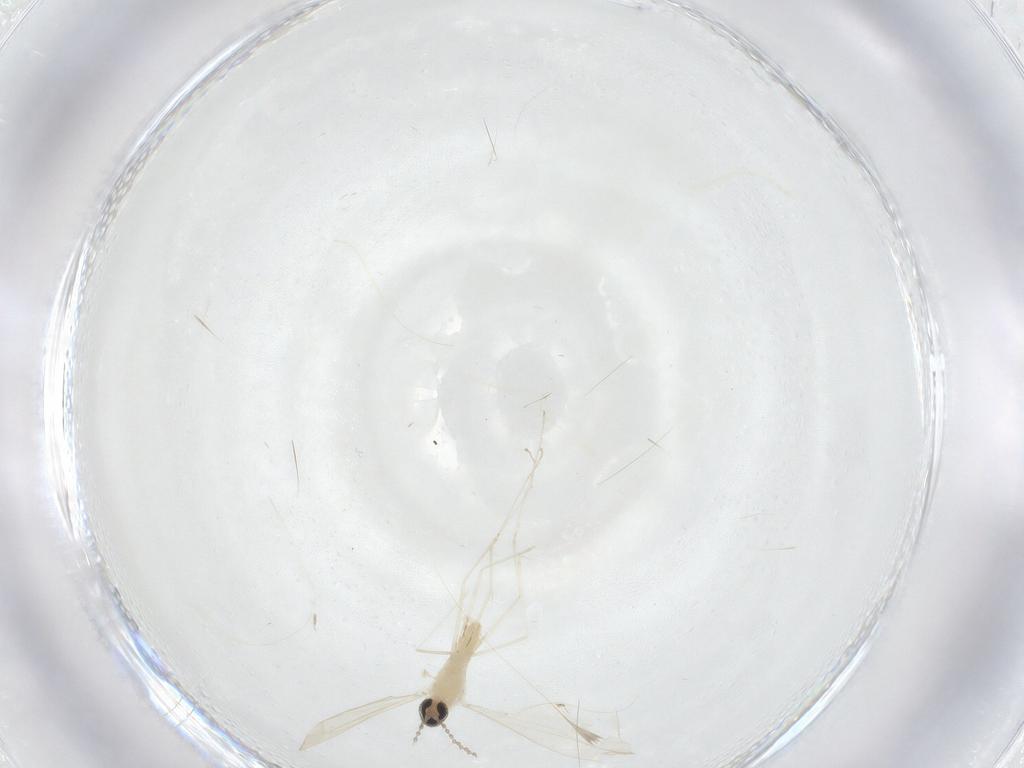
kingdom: Animalia
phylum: Arthropoda
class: Insecta
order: Diptera
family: Cecidomyiidae
